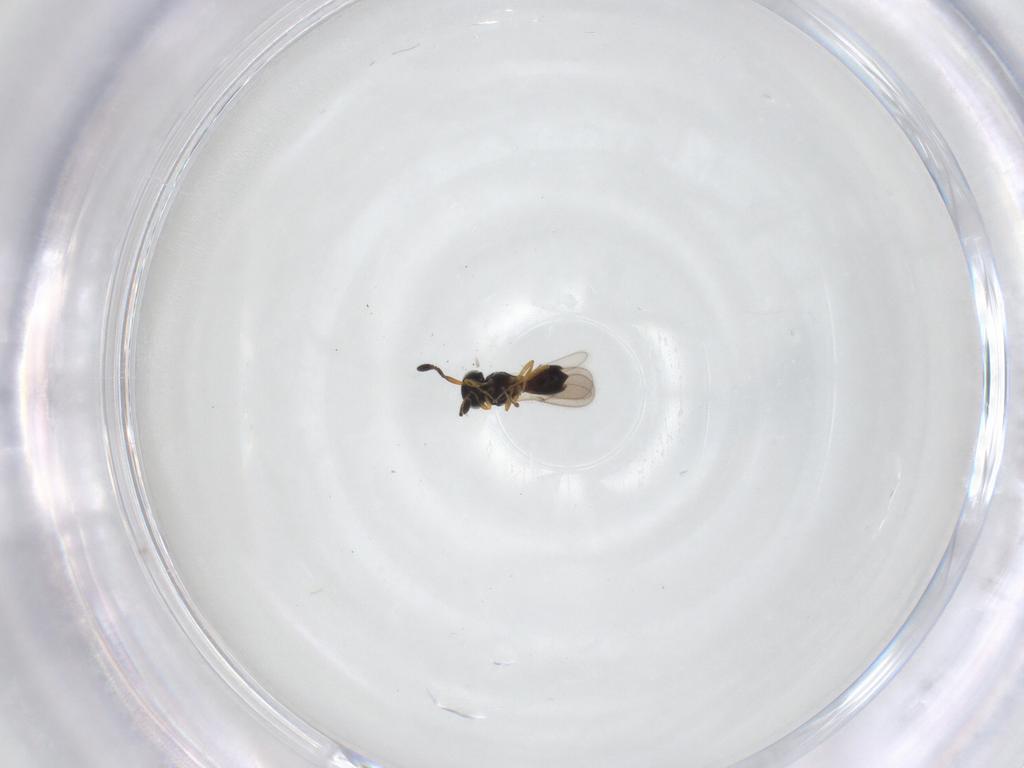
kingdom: Animalia
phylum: Arthropoda
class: Insecta
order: Hymenoptera
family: Scelionidae
